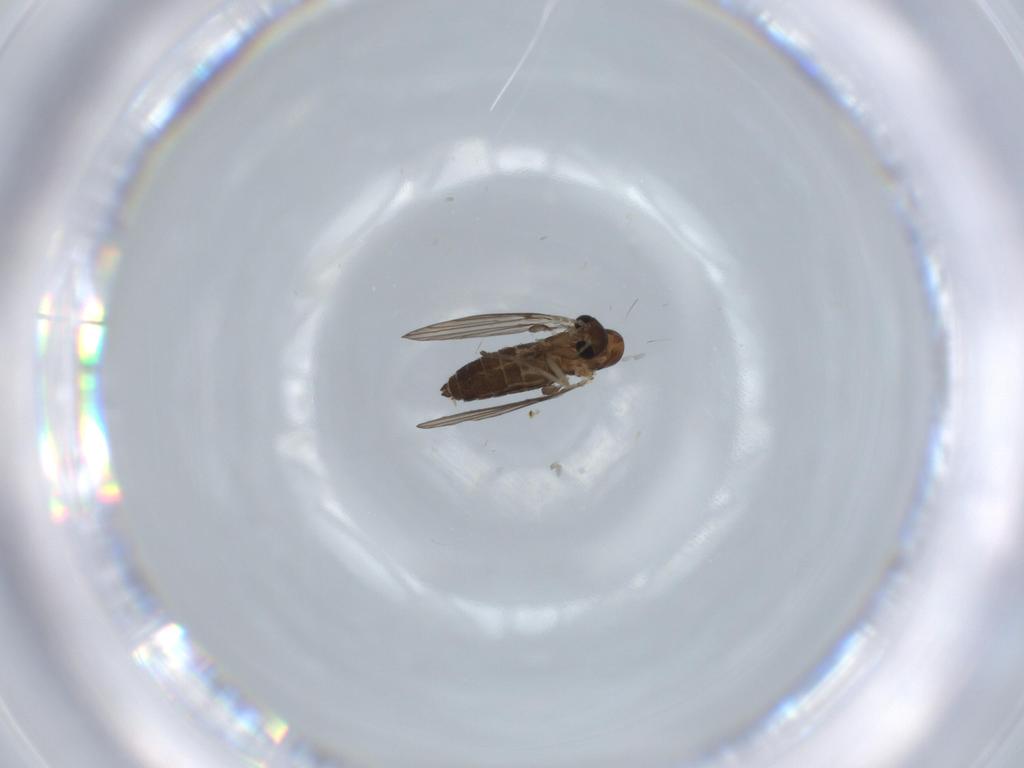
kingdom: Animalia
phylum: Arthropoda
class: Insecta
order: Diptera
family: Psychodidae
